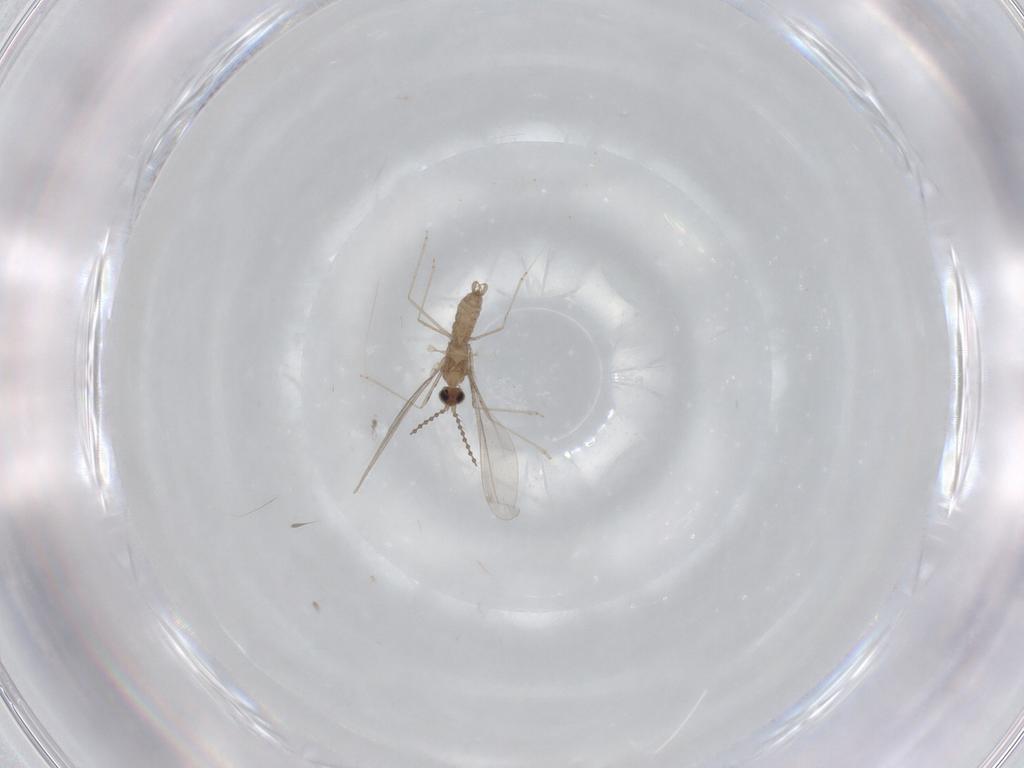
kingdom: Animalia
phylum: Arthropoda
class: Insecta
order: Diptera
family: Cecidomyiidae
